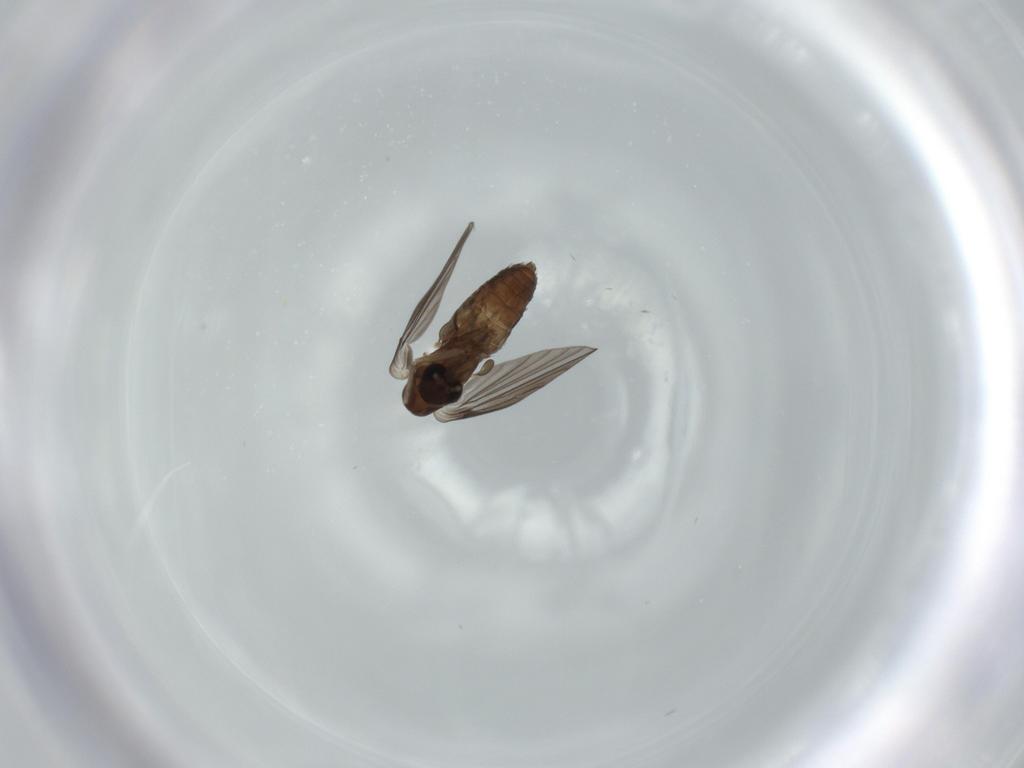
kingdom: Animalia
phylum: Arthropoda
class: Insecta
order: Diptera
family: Psychodidae
